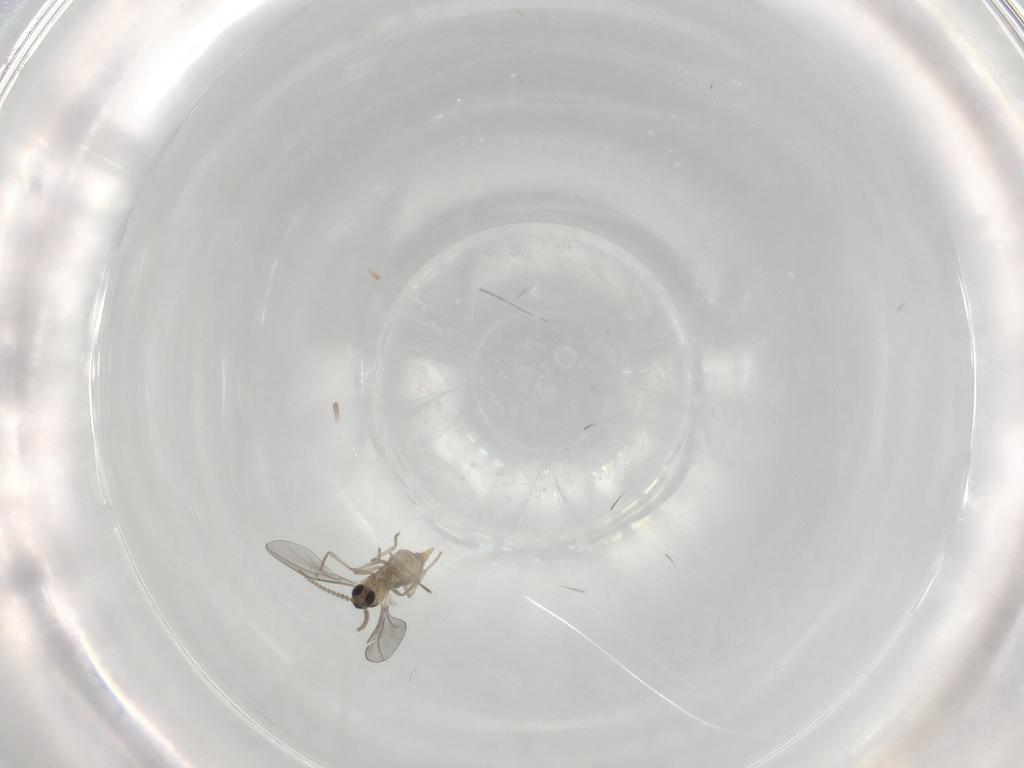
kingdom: Animalia
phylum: Arthropoda
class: Insecta
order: Diptera
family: Cecidomyiidae
